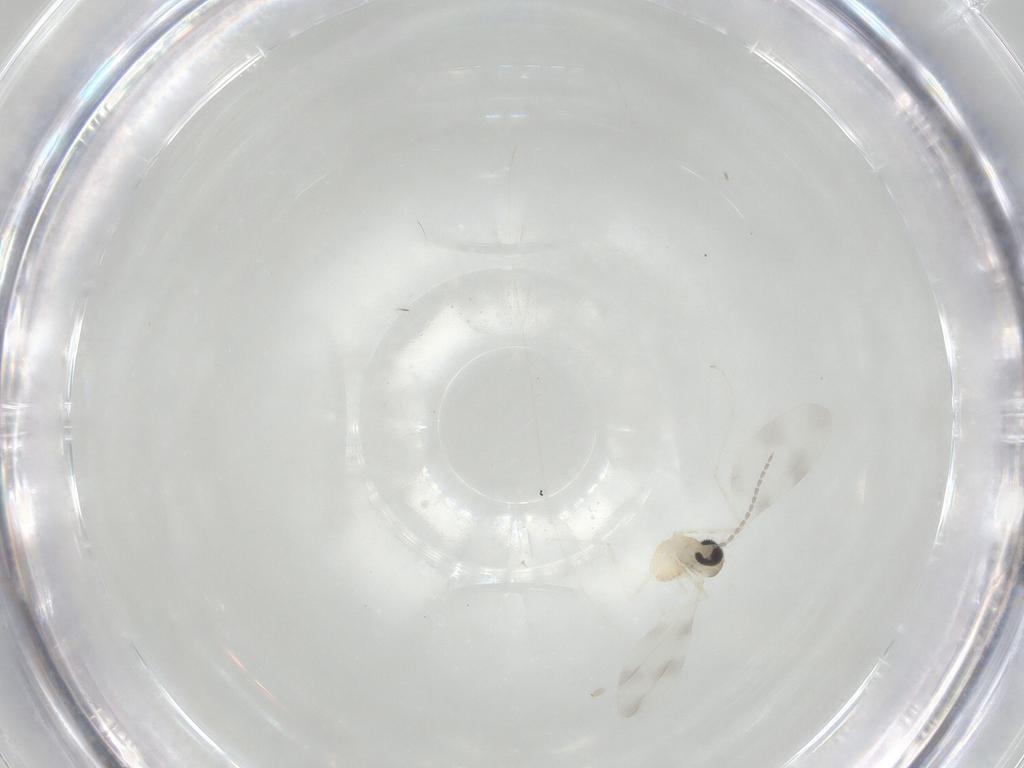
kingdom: Animalia
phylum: Arthropoda
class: Insecta
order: Diptera
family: Cecidomyiidae
